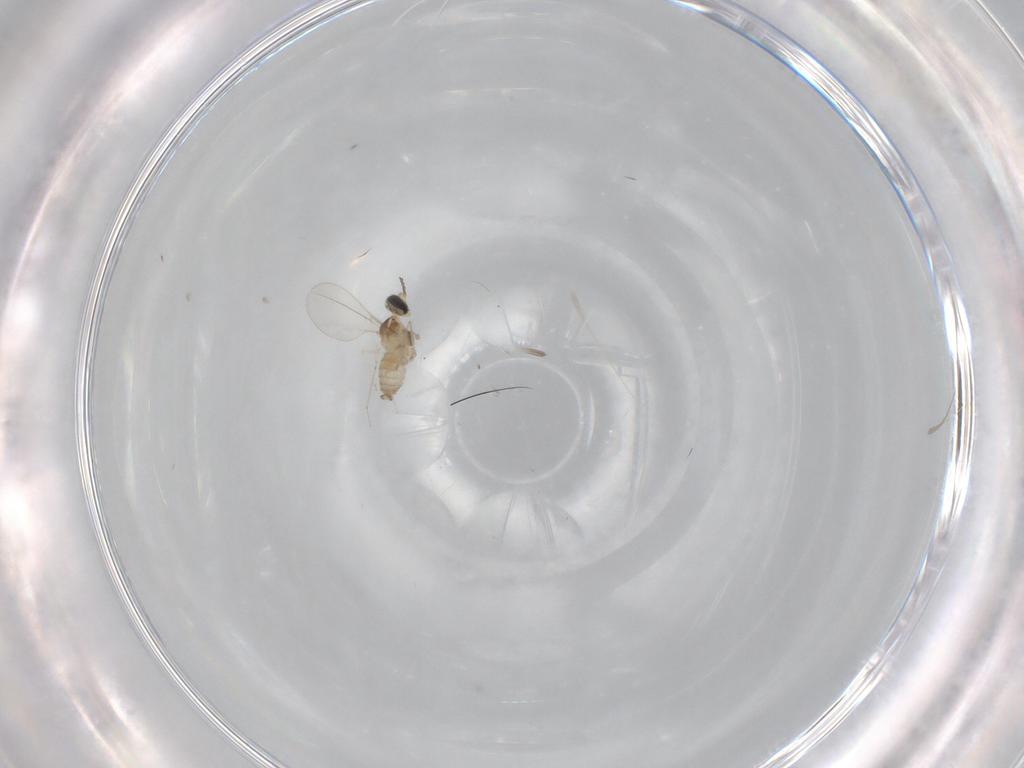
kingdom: Animalia
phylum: Arthropoda
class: Insecta
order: Diptera
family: Cecidomyiidae
